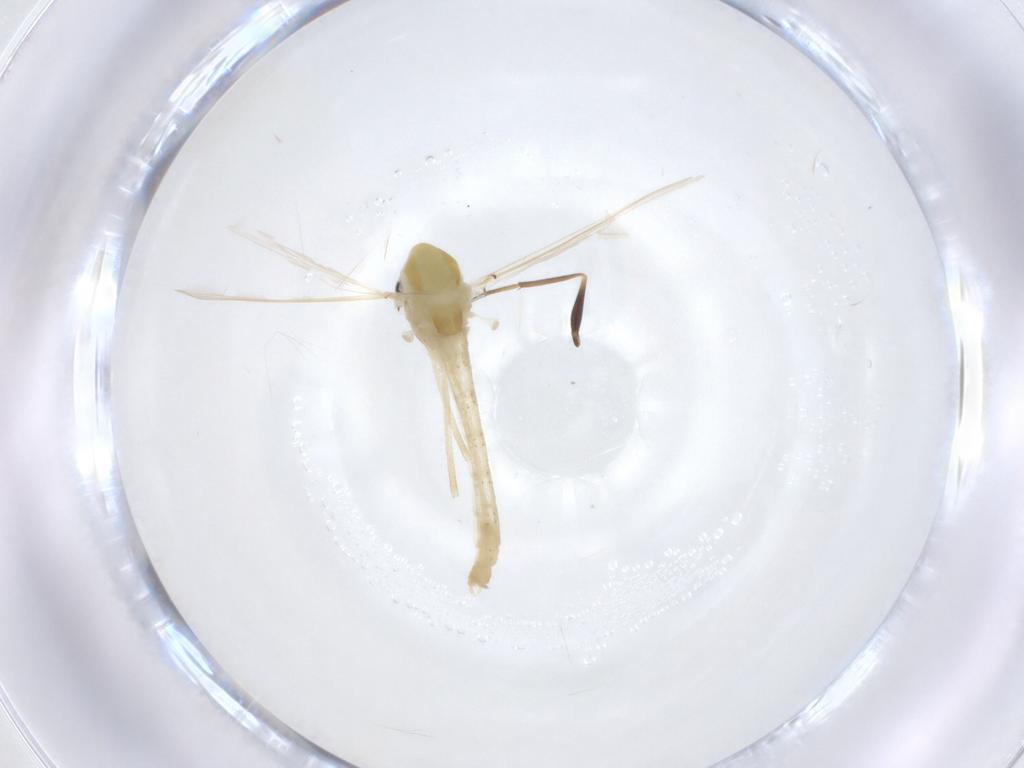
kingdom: Animalia
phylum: Arthropoda
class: Insecta
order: Diptera
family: Chironomidae
